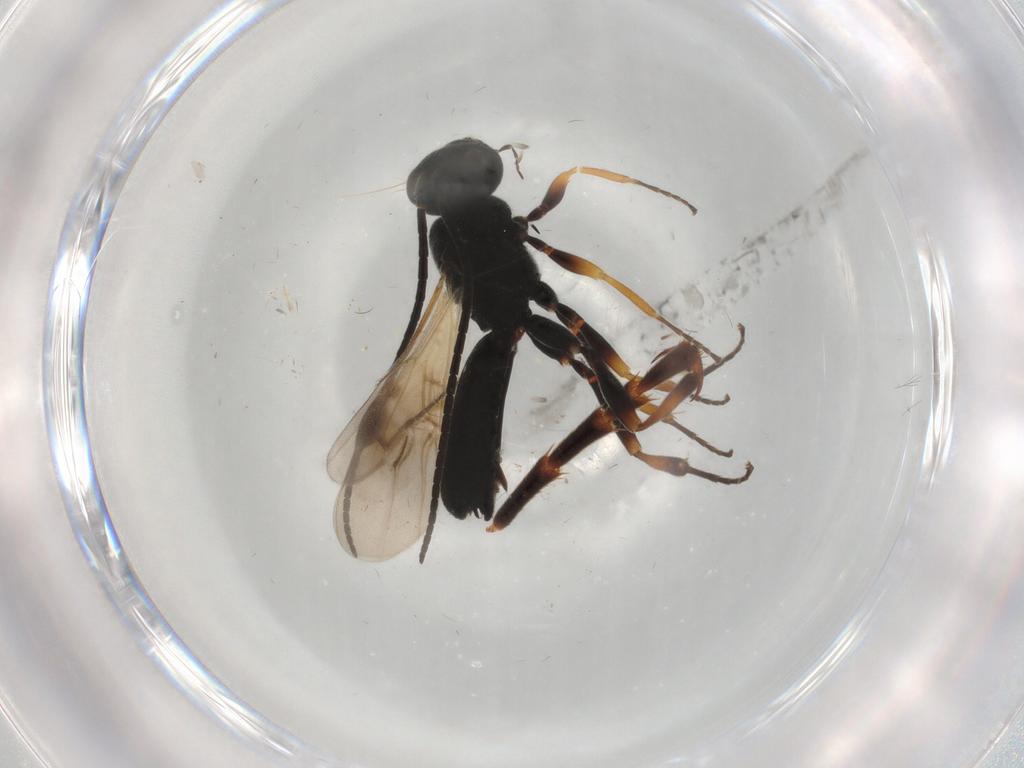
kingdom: Animalia
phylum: Arthropoda
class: Insecta
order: Hymenoptera
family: Braconidae
